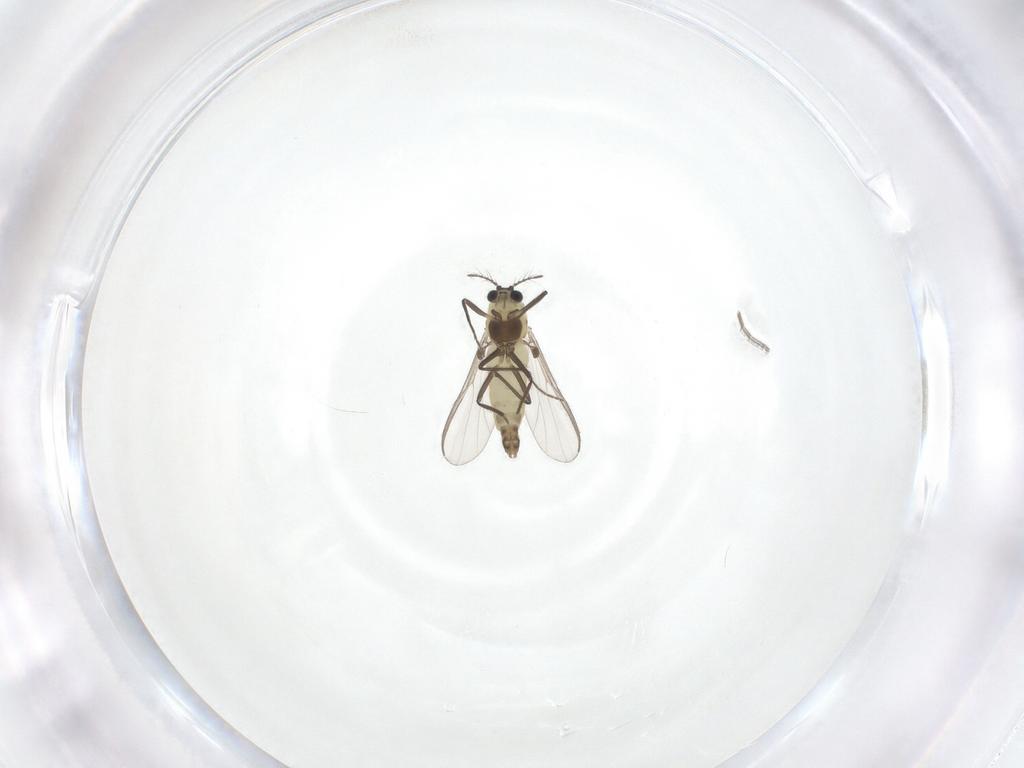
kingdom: Animalia
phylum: Arthropoda
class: Insecta
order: Diptera
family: Chironomidae
